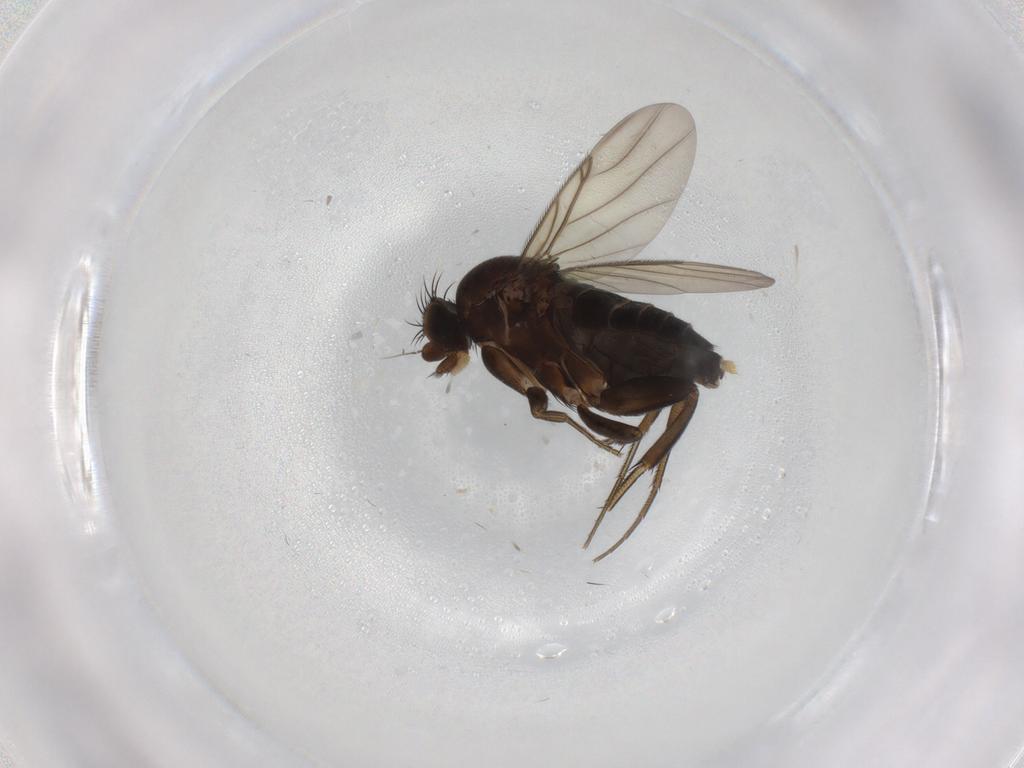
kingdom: Animalia
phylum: Arthropoda
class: Insecta
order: Diptera
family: Phoridae
